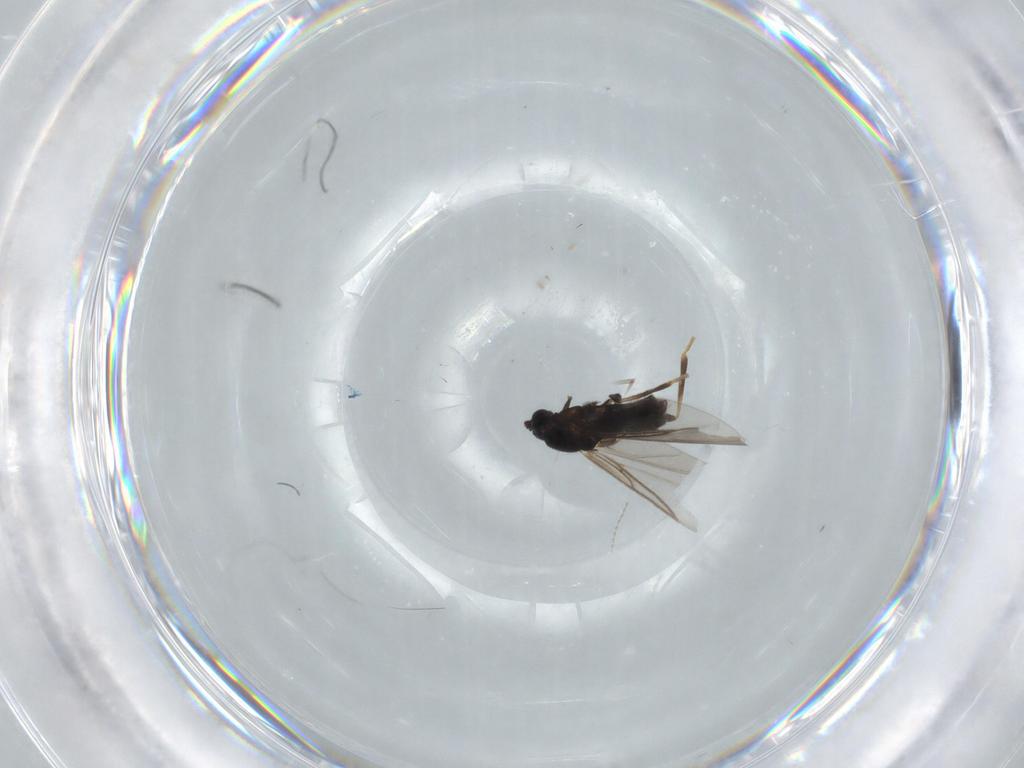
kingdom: Animalia
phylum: Arthropoda
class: Insecta
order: Diptera
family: Scatopsidae
